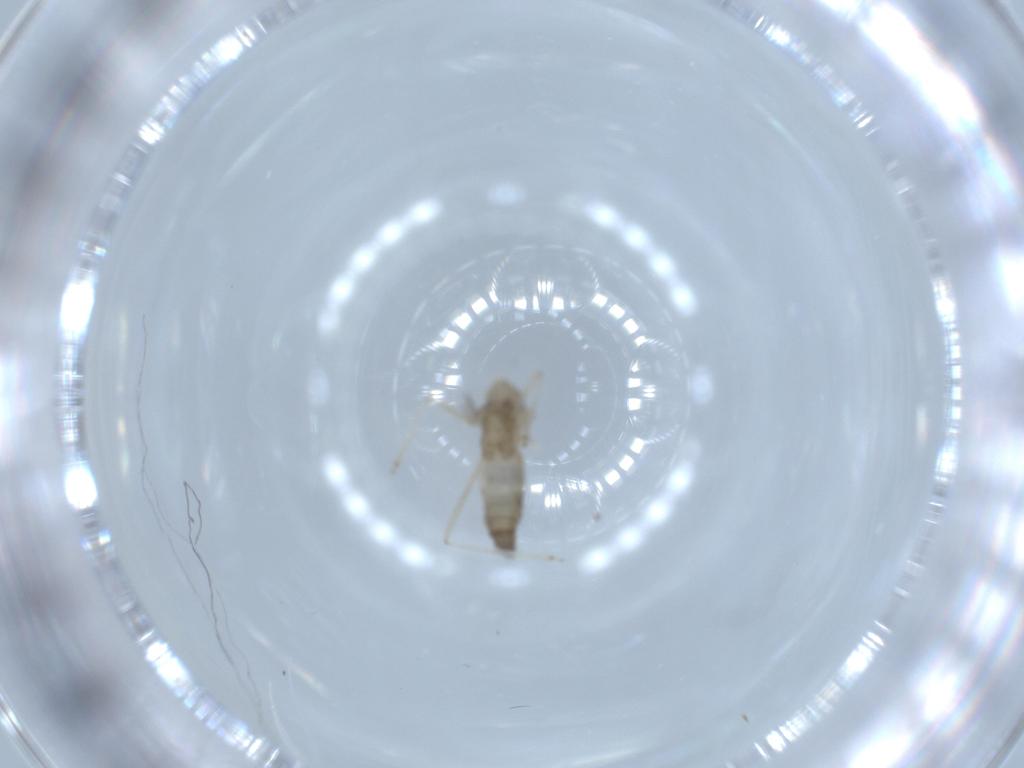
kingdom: Animalia
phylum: Arthropoda
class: Insecta
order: Diptera
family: Cecidomyiidae
